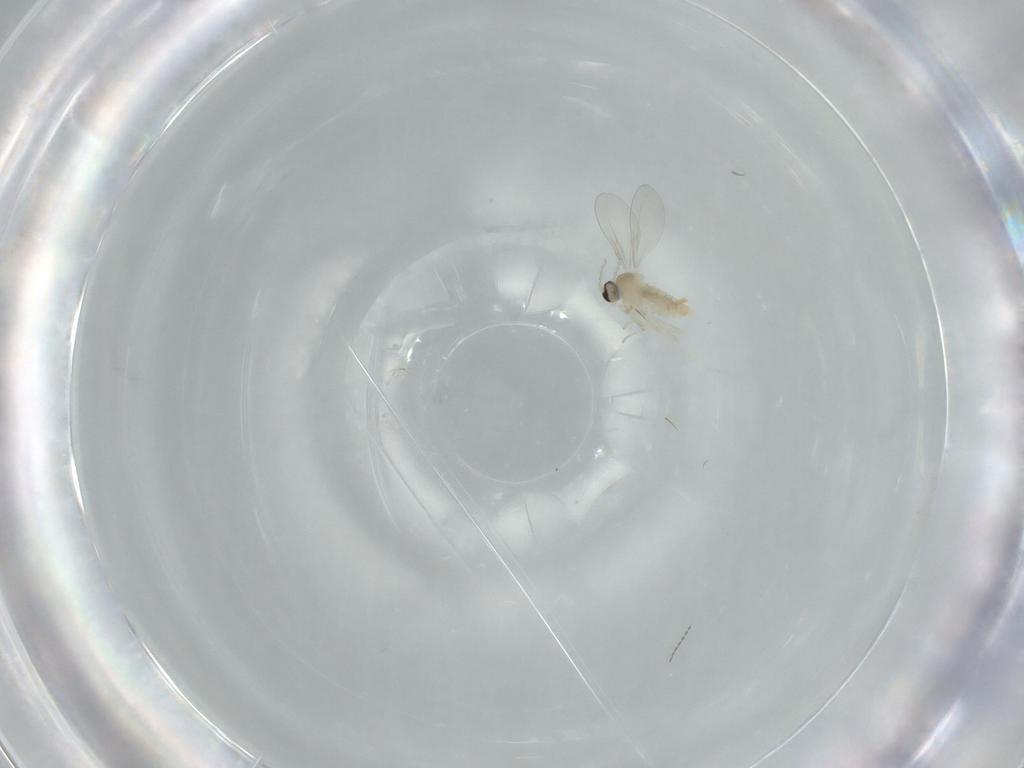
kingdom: Animalia
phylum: Arthropoda
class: Insecta
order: Diptera
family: Cecidomyiidae
